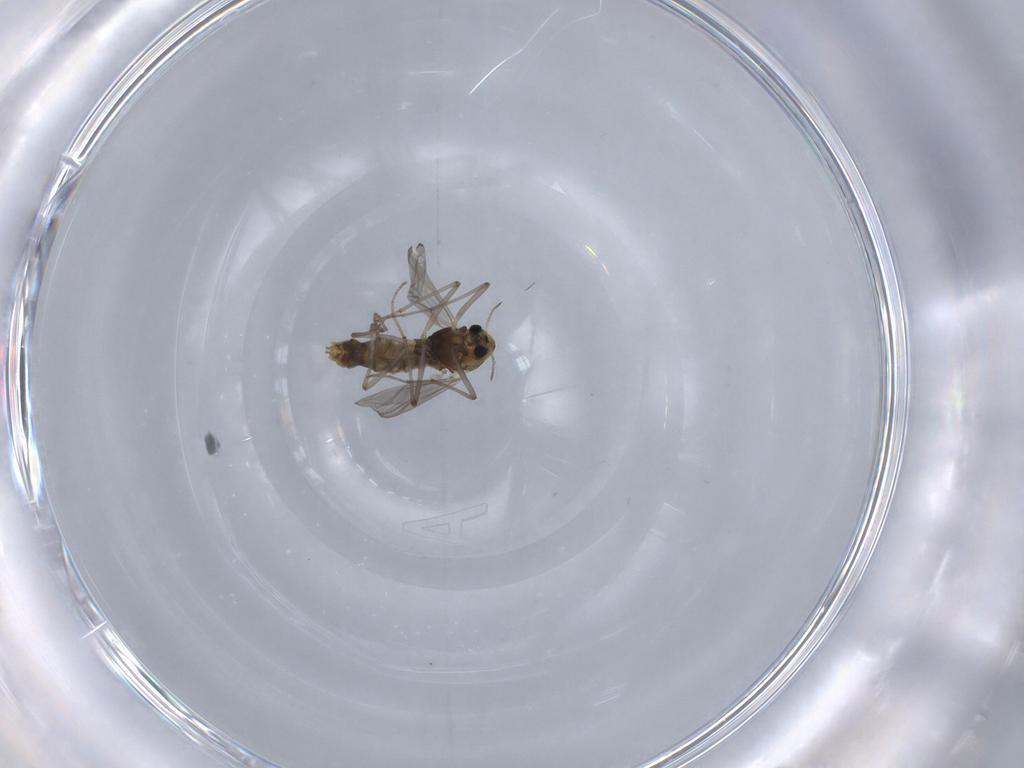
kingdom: Animalia
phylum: Arthropoda
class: Insecta
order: Diptera
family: Chironomidae
